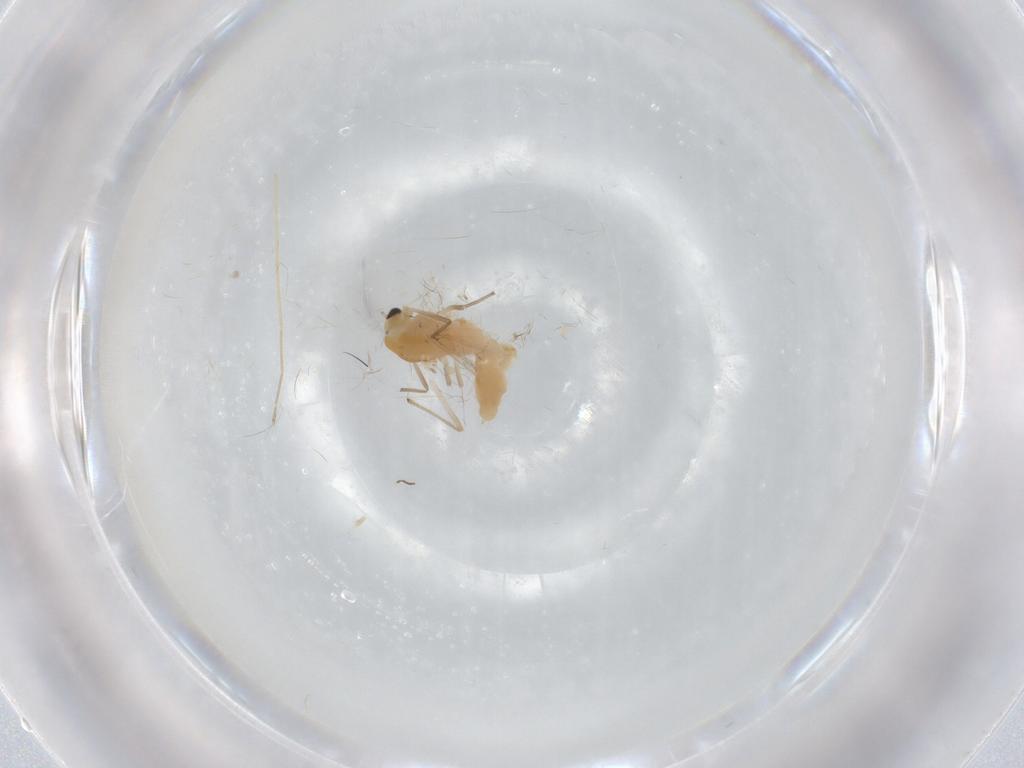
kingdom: Animalia
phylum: Arthropoda
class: Insecta
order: Diptera
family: Chironomidae
